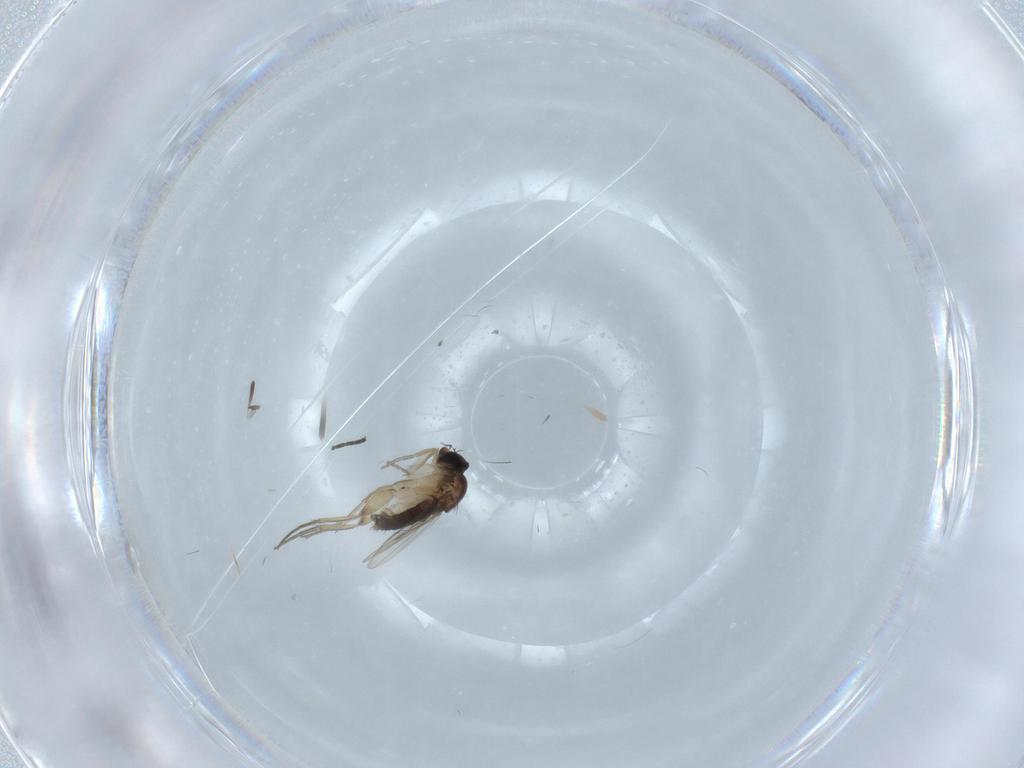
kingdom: Animalia
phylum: Arthropoda
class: Insecta
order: Diptera
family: Phoridae
